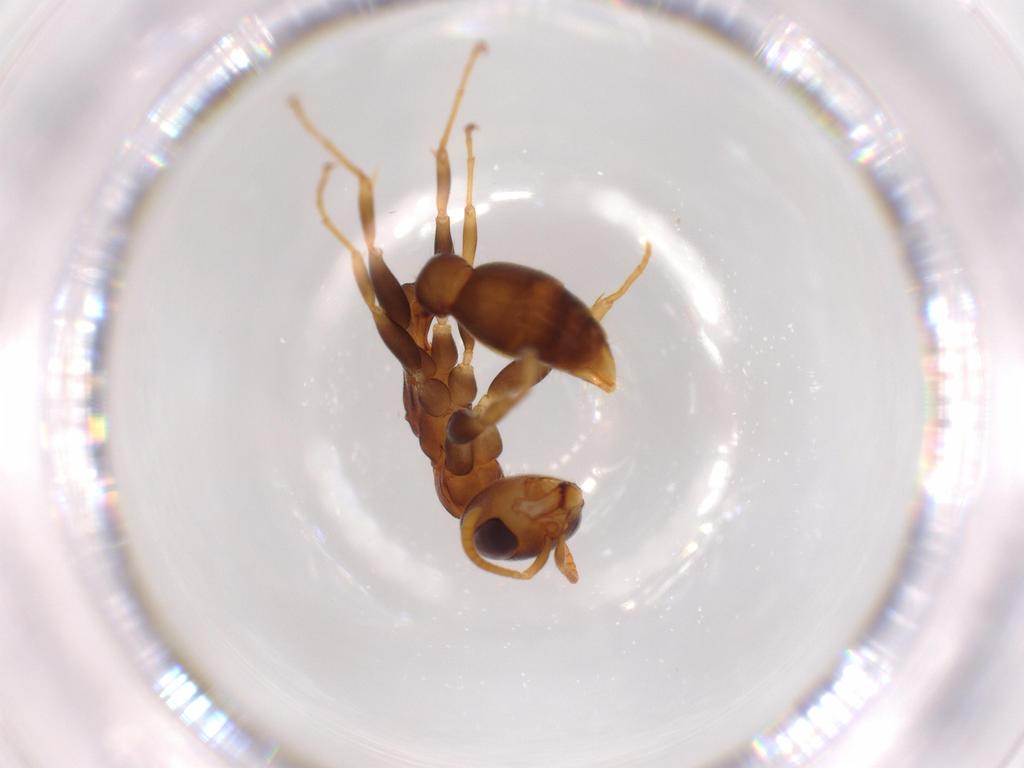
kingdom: Animalia
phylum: Arthropoda
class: Insecta
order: Hymenoptera
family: Formicidae
